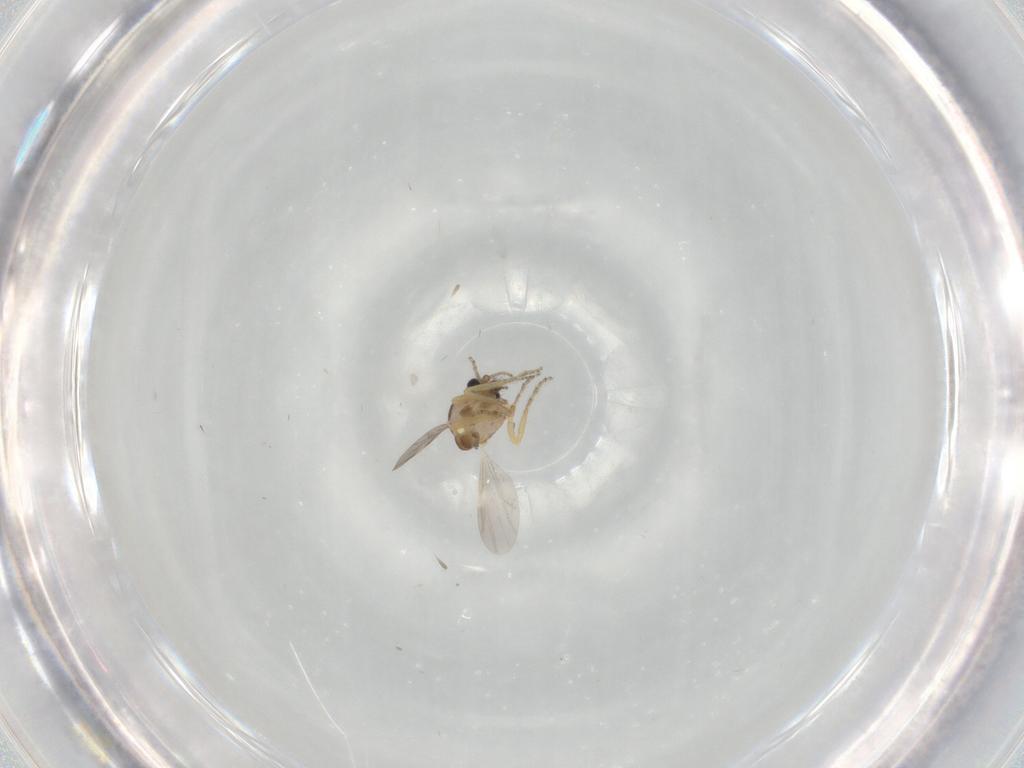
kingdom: Animalia
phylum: Arthropoda
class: Insecta
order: Diptera
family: Ceratopogonidae
